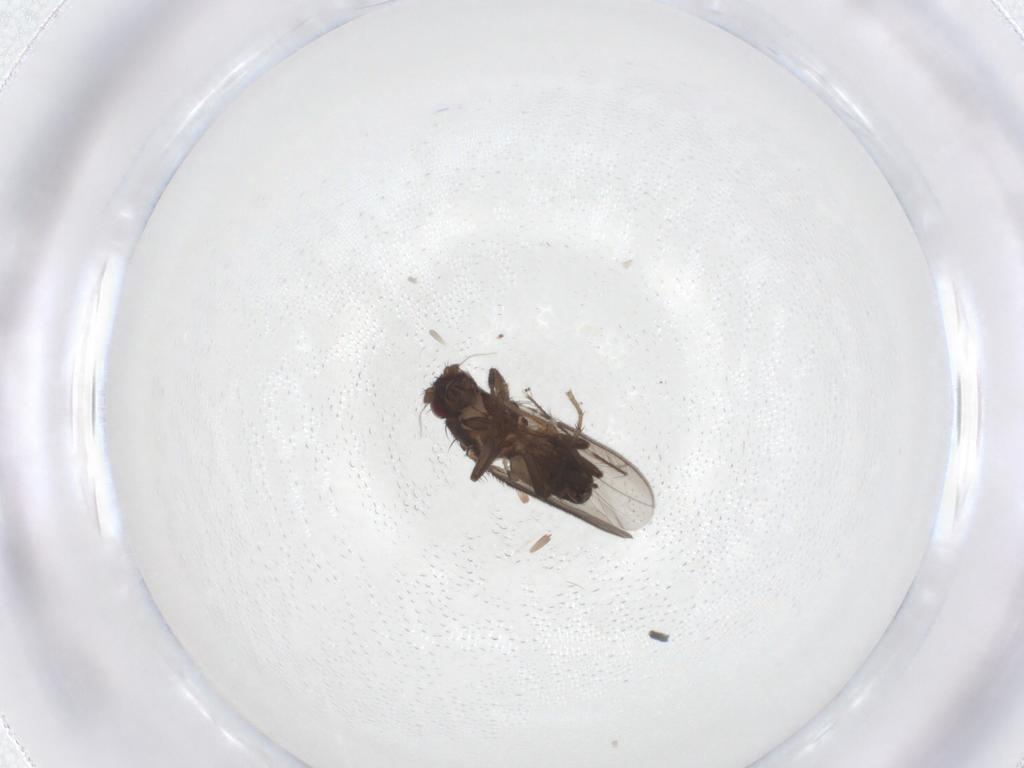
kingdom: Animalia
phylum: Arthropoda
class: Insecta
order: Diptera
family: Sphaeroceridae
